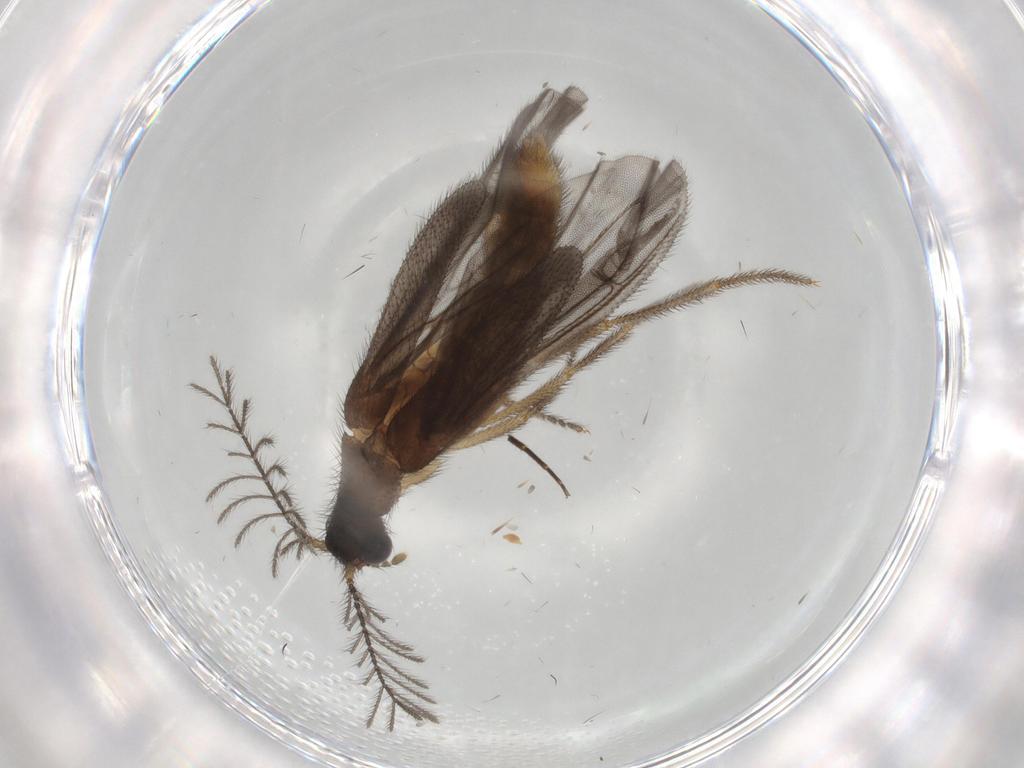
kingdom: Animalia
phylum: Arthropoda
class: Insecta
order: Coleoptera
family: Phengodidae
